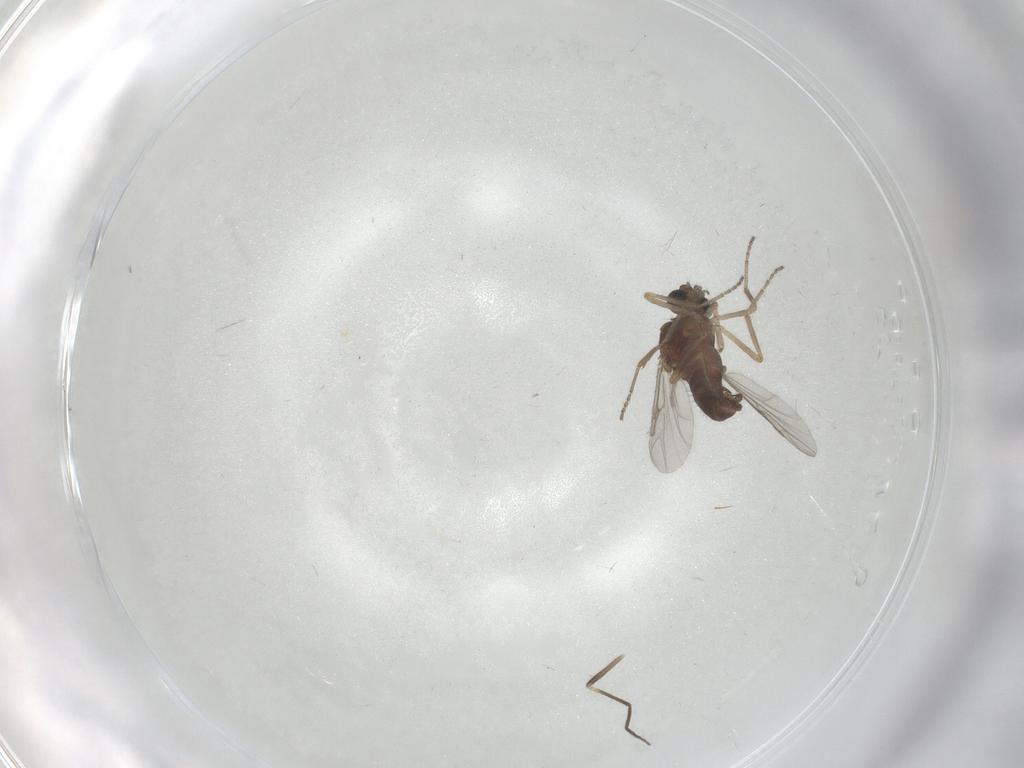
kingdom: Animalia
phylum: Arthropoda
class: Insecta
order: Diptera
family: Ceratopogonidae
